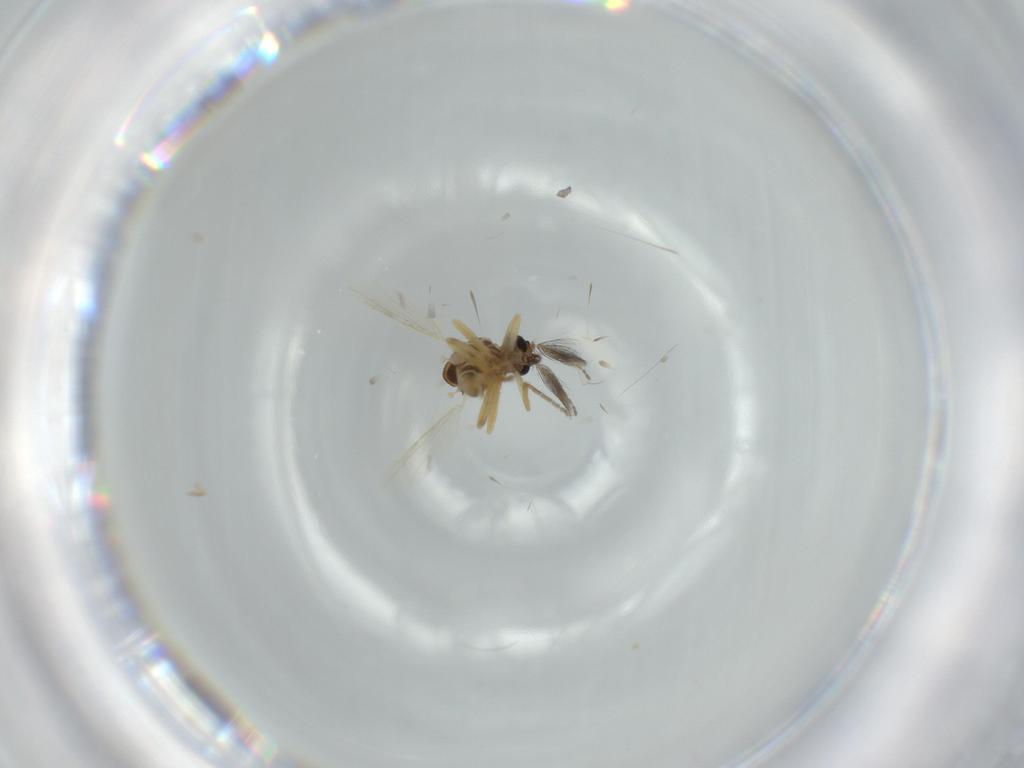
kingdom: Animalia
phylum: Arthropoda
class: Insecta
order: Diptera
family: Ceratopogonidae
